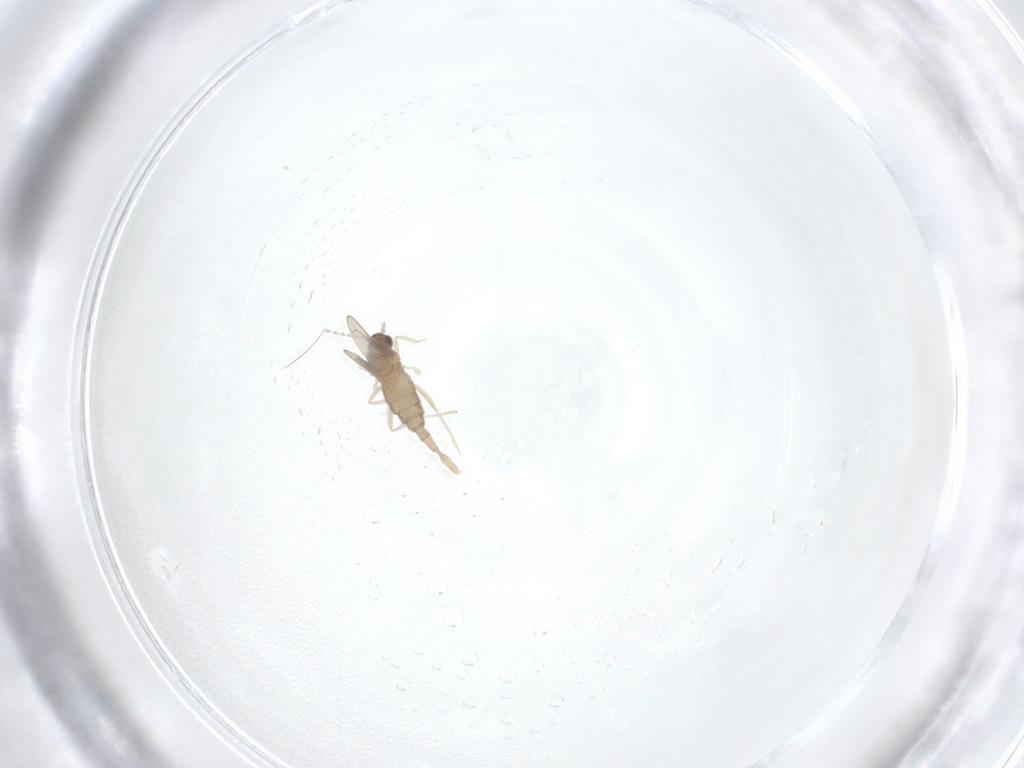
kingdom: Animalia
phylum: Arthropoda
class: Insecta
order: Diptera
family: Cecidomyiidae
